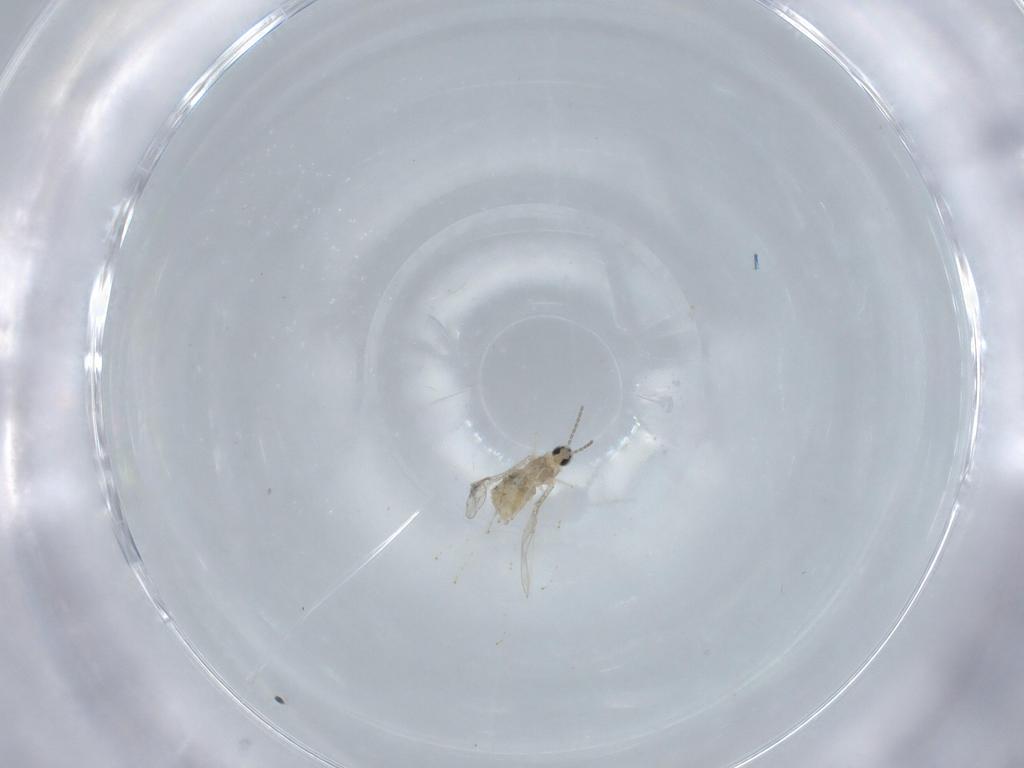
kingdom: Animalia
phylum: Arthropoda
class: Insecta
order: Diptera
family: Cecidomyiidae
